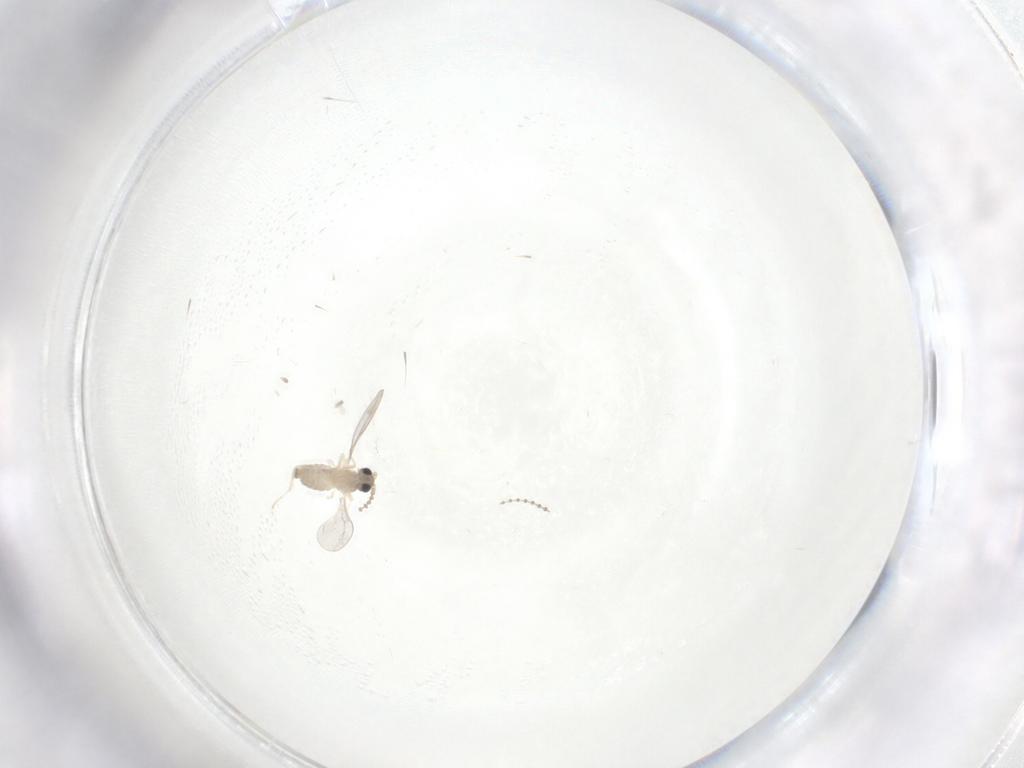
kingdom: Animalia
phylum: Arthropoda
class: Insecta
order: Diptera
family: Cecidomyiidae
